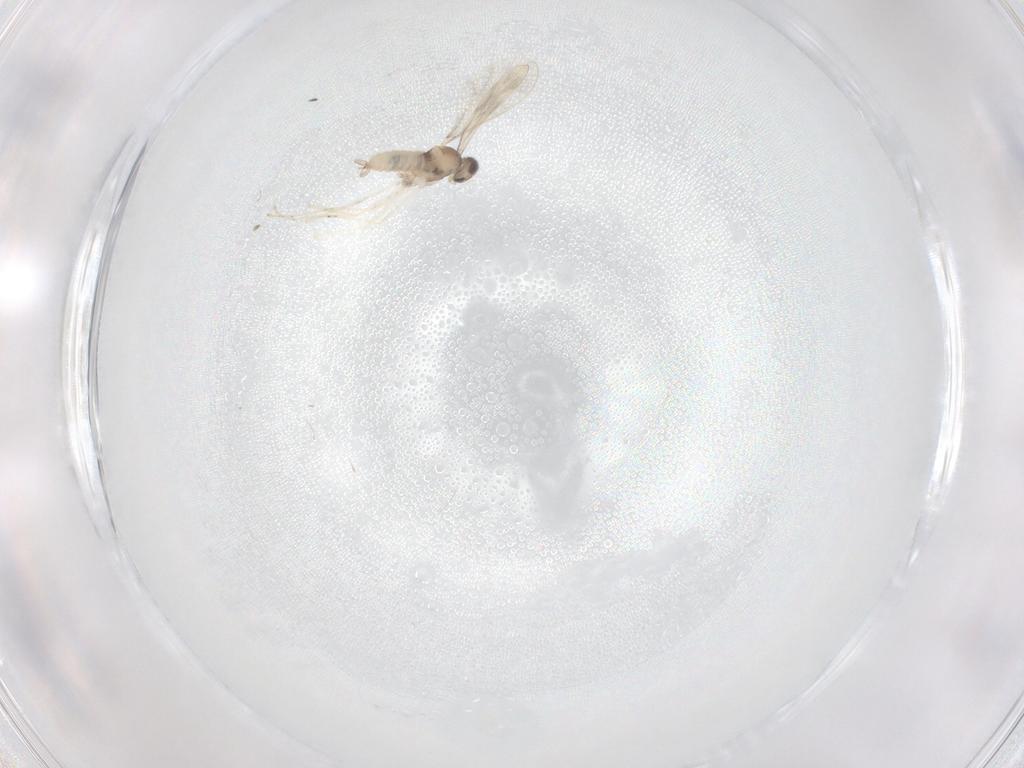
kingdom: Animalia
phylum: Arthropoda
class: Insecta
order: Diptera
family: Cecidomyiidae
